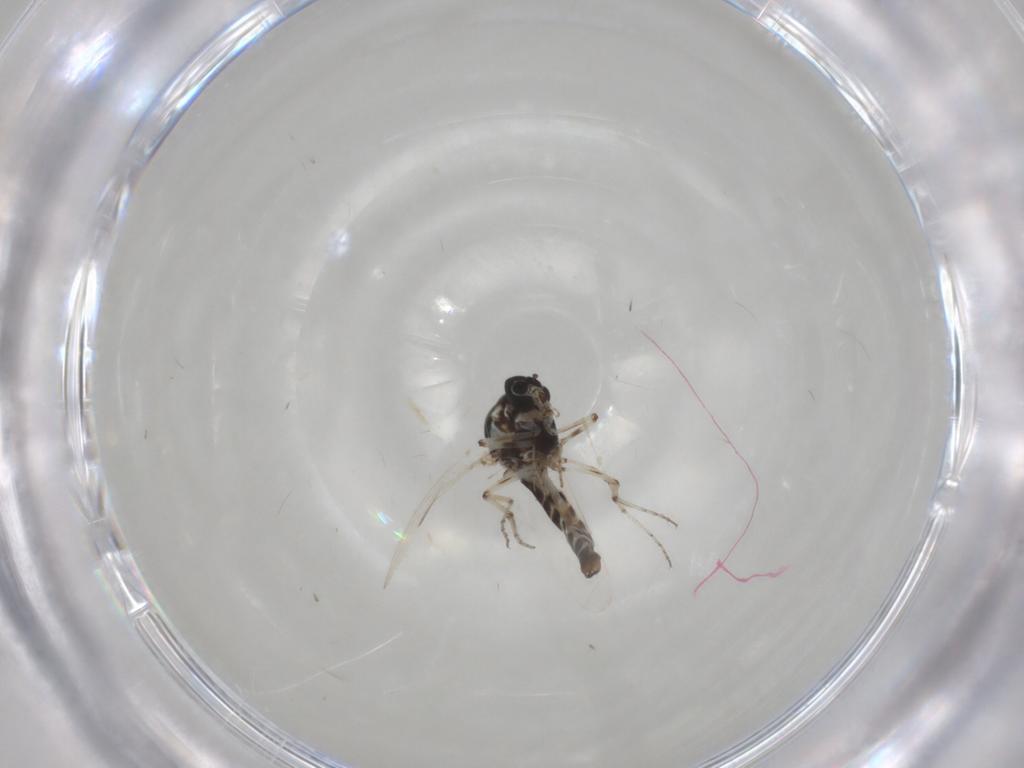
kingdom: Animalia
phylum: Arthropoda
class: Insecta
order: Diptera
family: Ceratopogonidae
